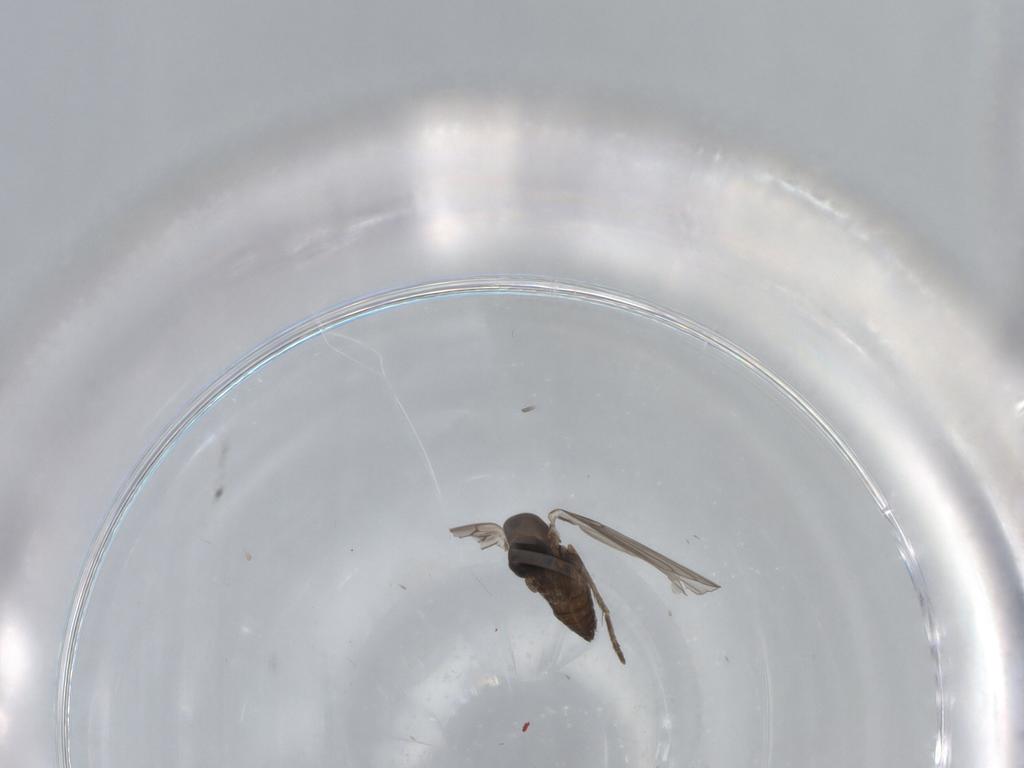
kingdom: Animalia
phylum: Arthropoda
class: Insecta
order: Diptera
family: Chironomidae
